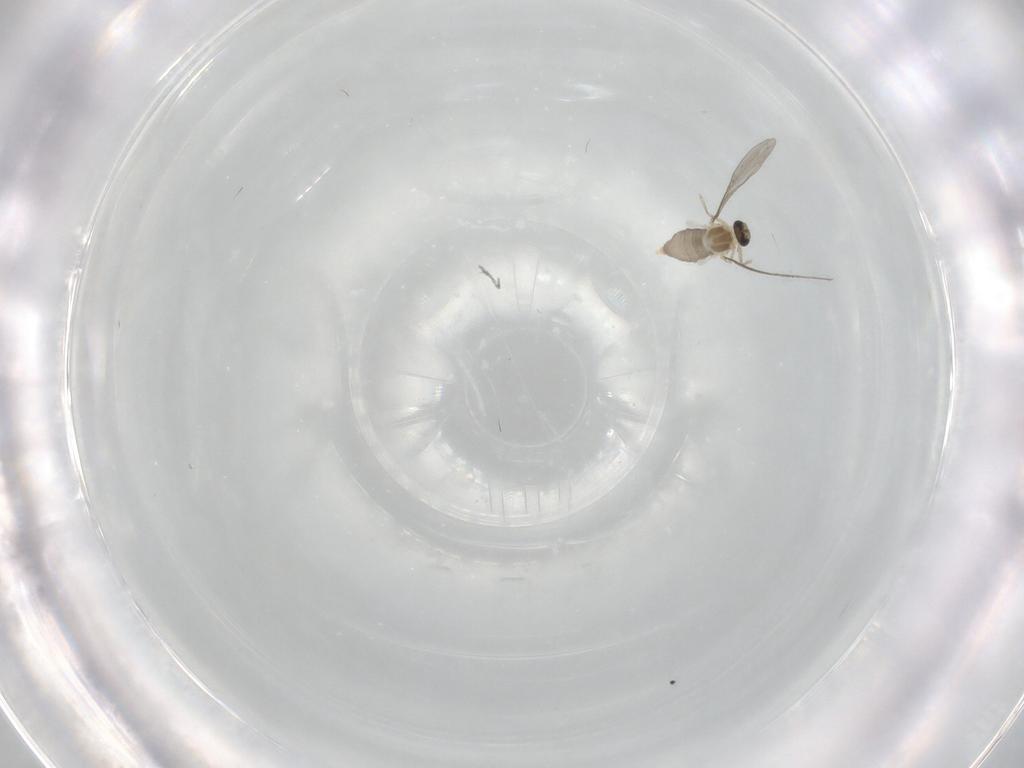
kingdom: Animalia
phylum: Arthropoda
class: Insecta
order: Diptera
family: Cecidomyiidae
